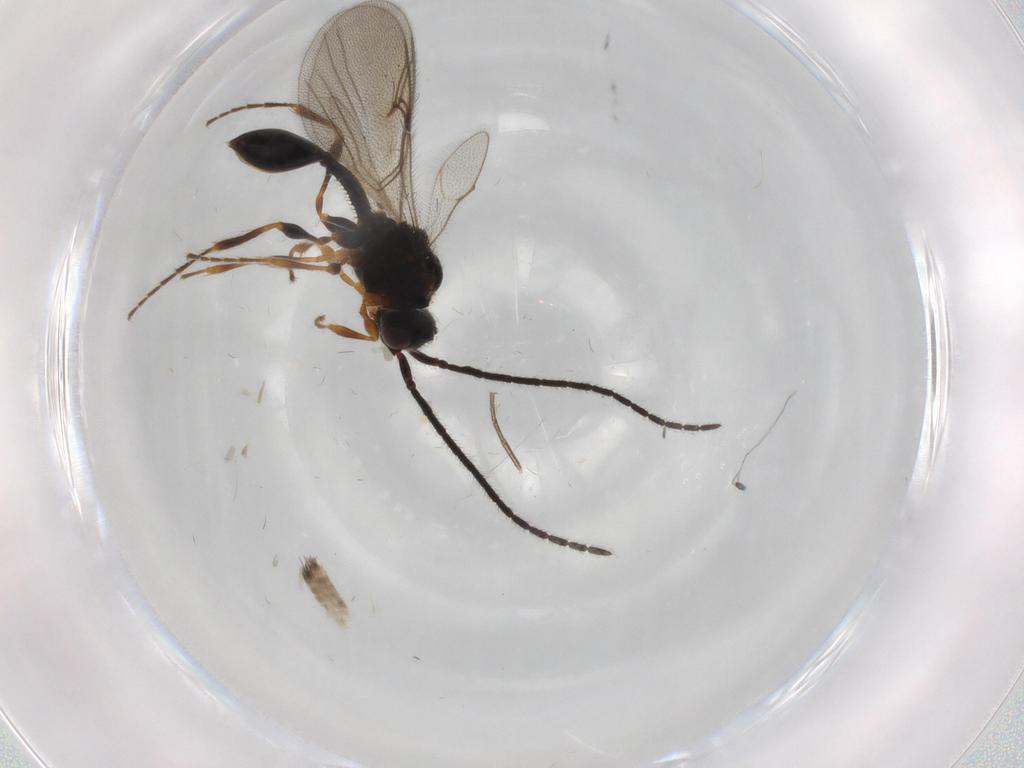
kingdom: Animalia
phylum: Arthropoda
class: Insecta
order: Hymenoptera
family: Diapriidae
